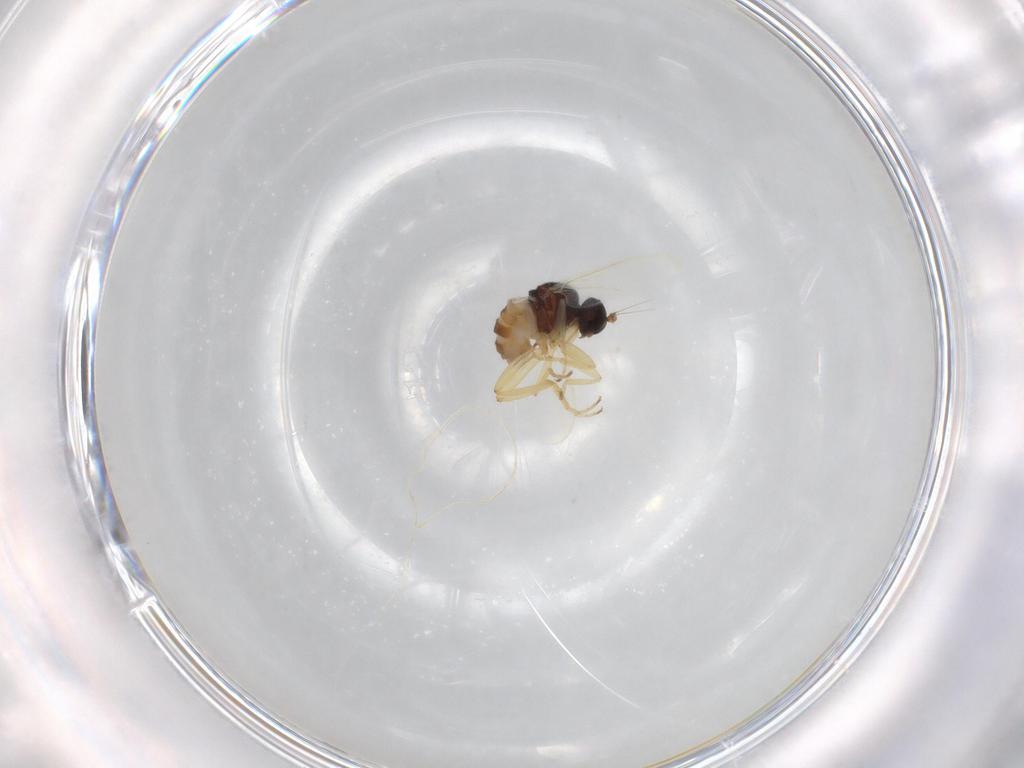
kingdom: Animalia
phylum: Arthropoda
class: Insecta
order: Diptera
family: Hybotidae
